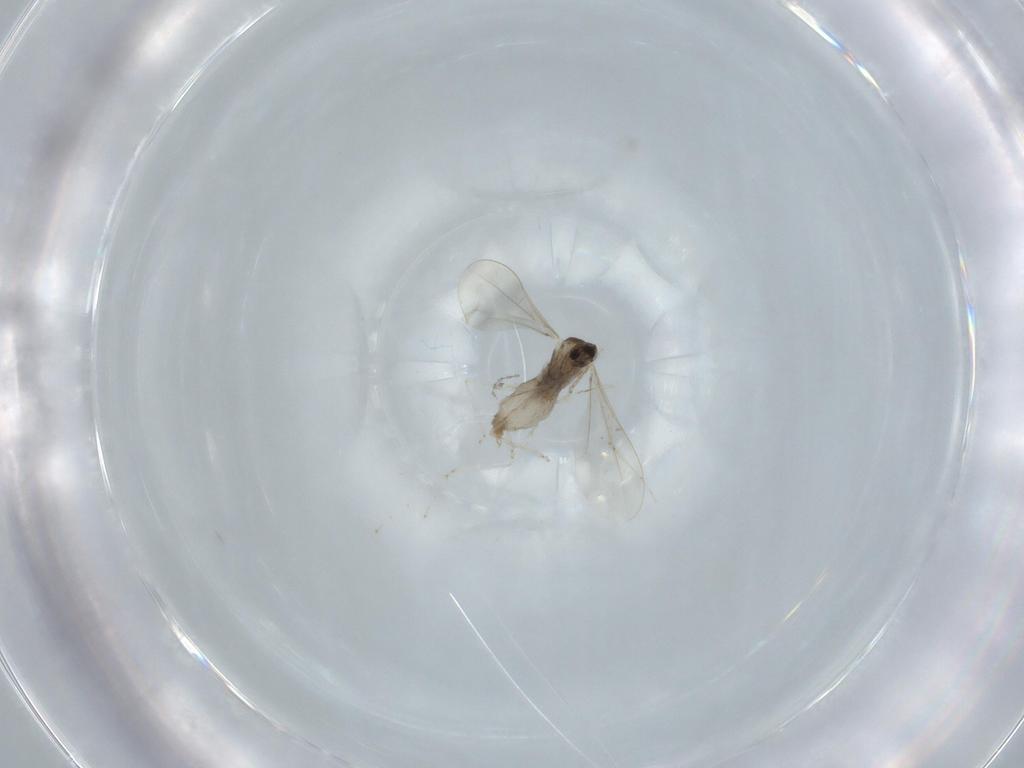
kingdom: Animalia
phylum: Arthropoda
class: Insecta
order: Diptera
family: Cecidomyiidae
